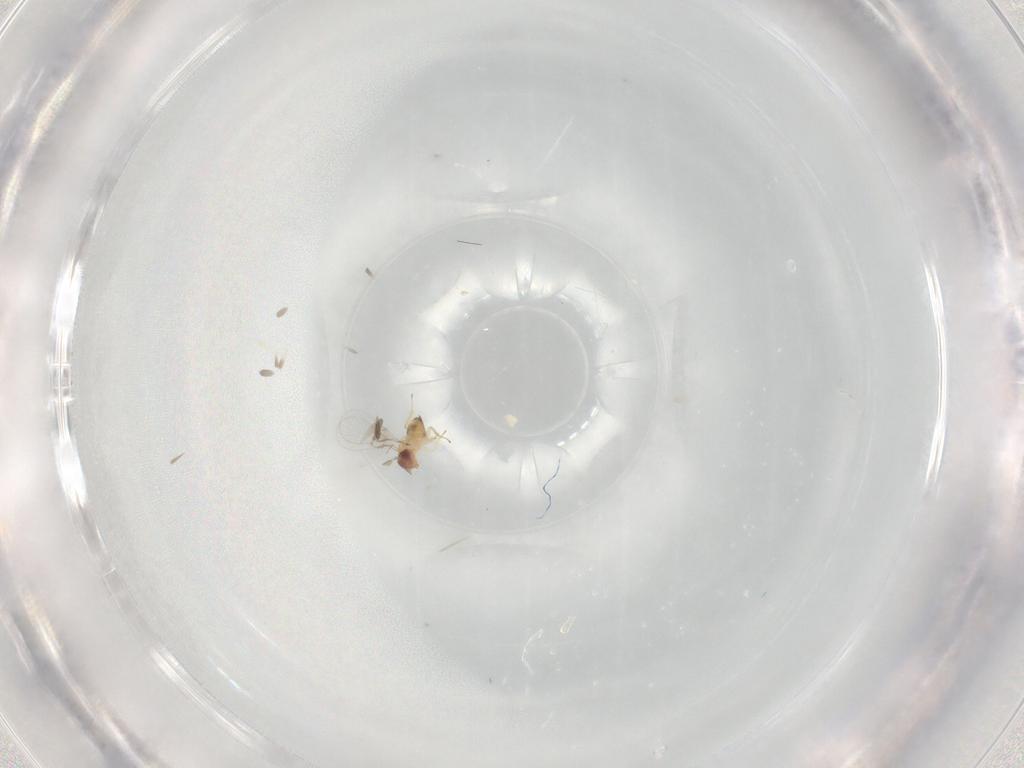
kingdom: Animalia
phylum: Arthropoda
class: Insecta
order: Hymenoptera
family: Trichogrammatidae
